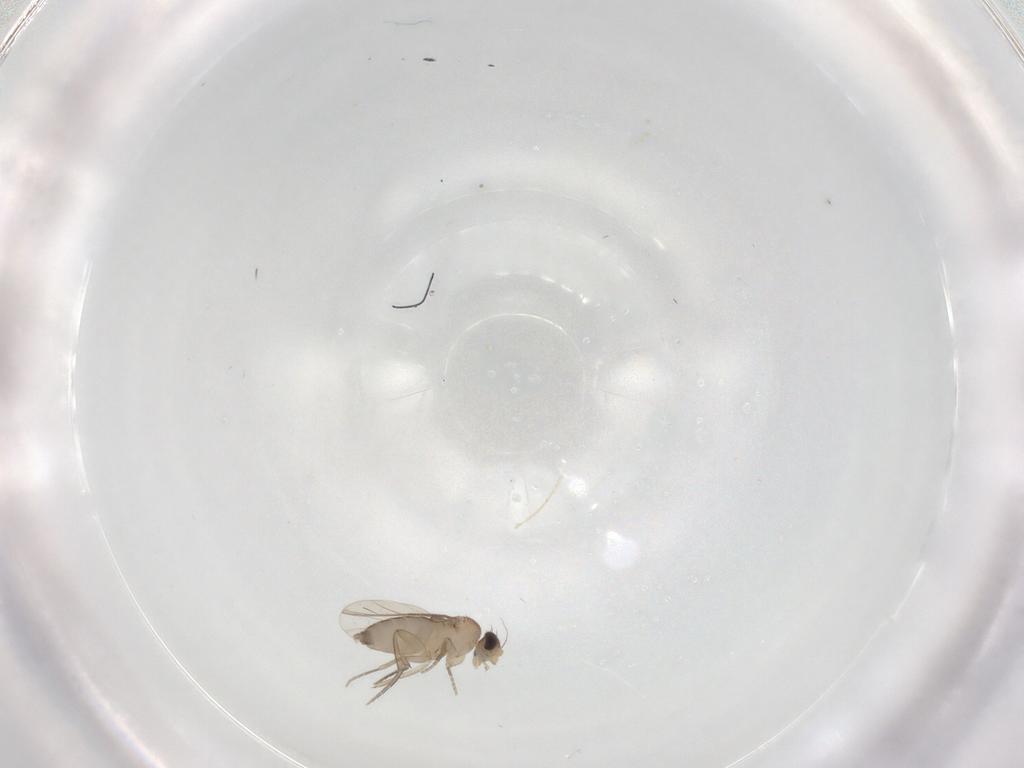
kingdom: Animalia
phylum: Arthropoda
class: Insecta
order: Diptera
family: Phoridae
